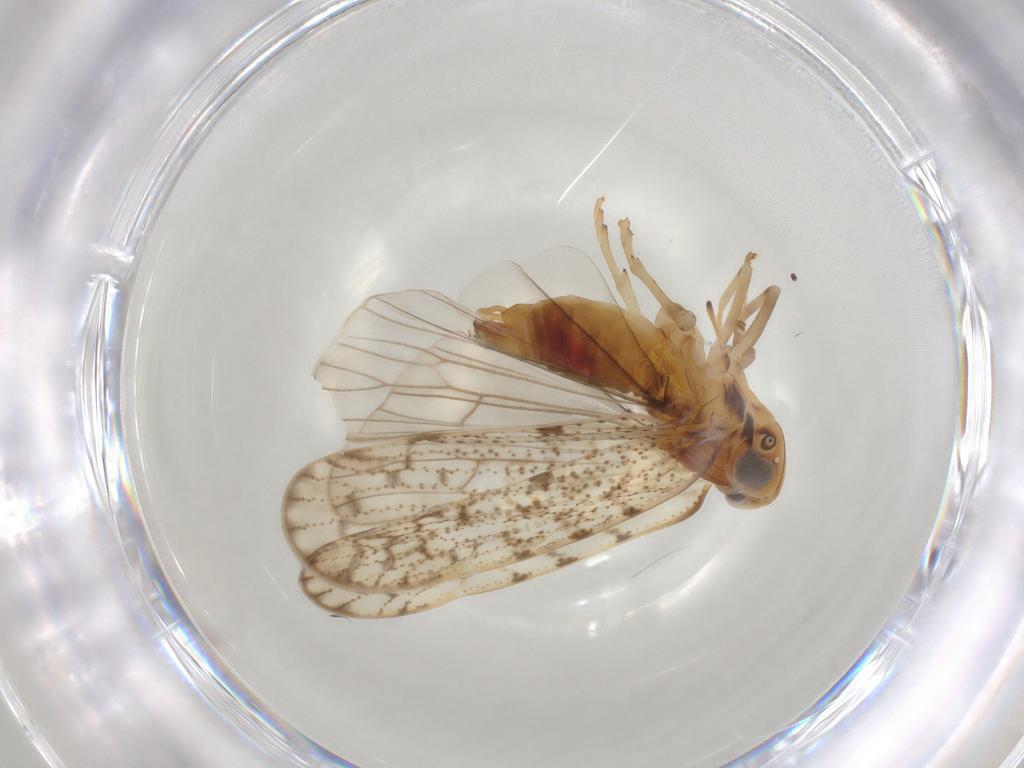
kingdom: Animalia
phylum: Arthropoda
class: Insecta
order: Diptera
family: Sciaridae
